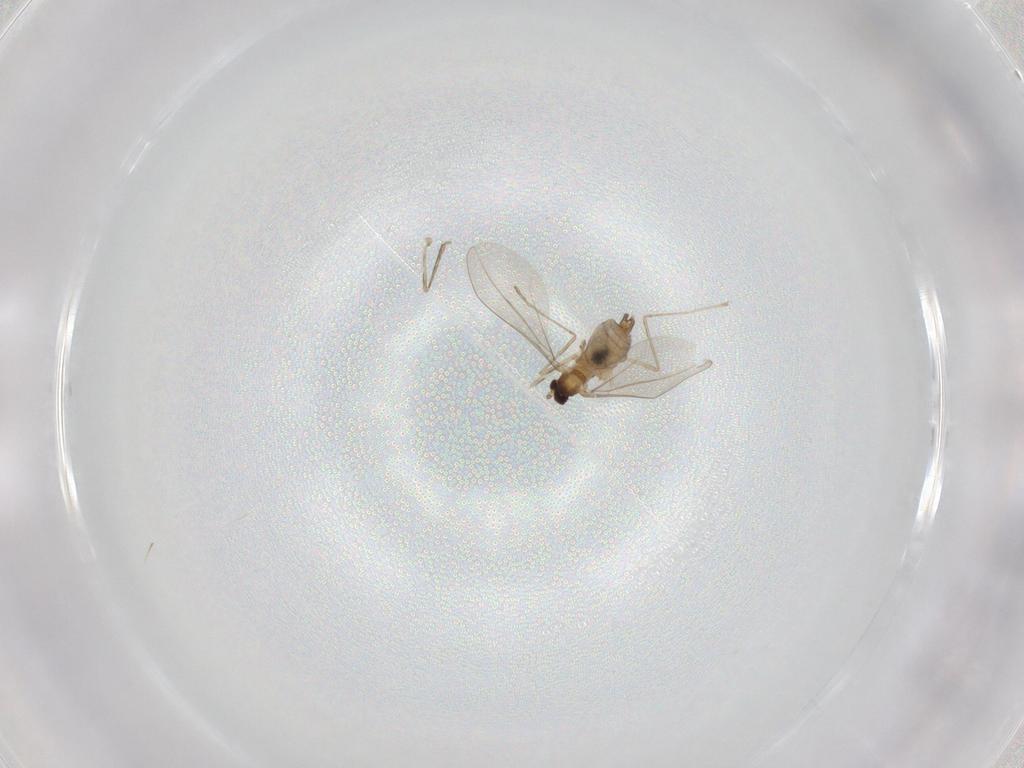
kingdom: Animalia
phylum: Arthropoda
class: Insecta
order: Diptera
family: Cecidomyiidae
